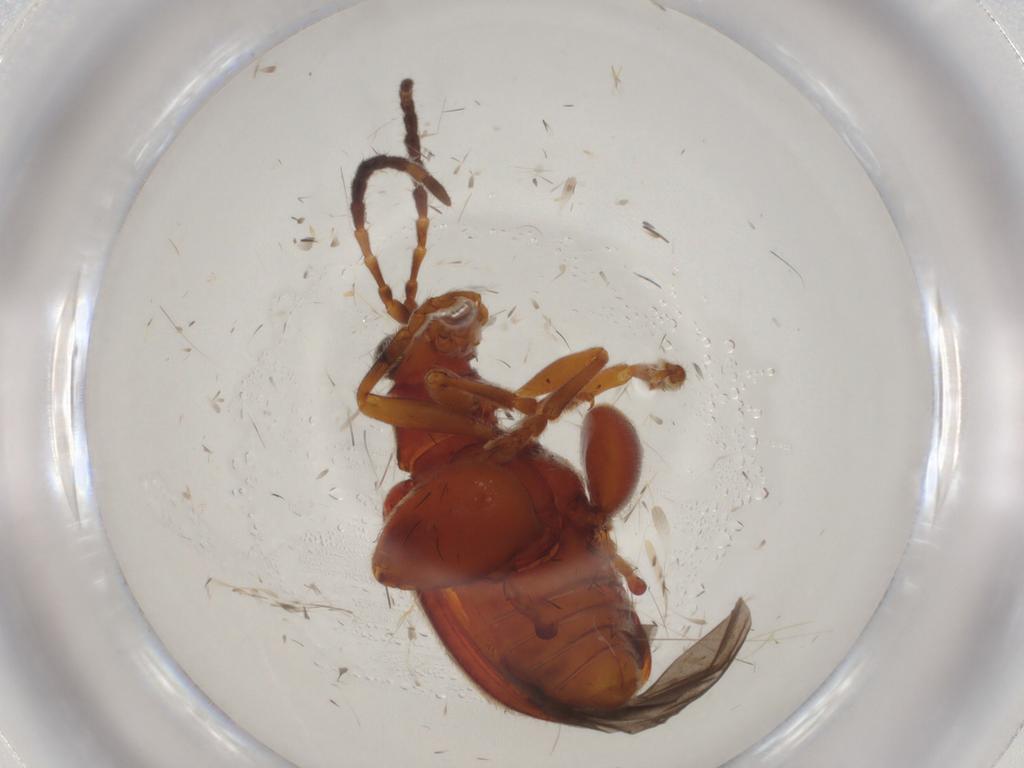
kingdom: Animalia
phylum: Arthropoda
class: Insecta
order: Coleoptera
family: Chrysomelidae
